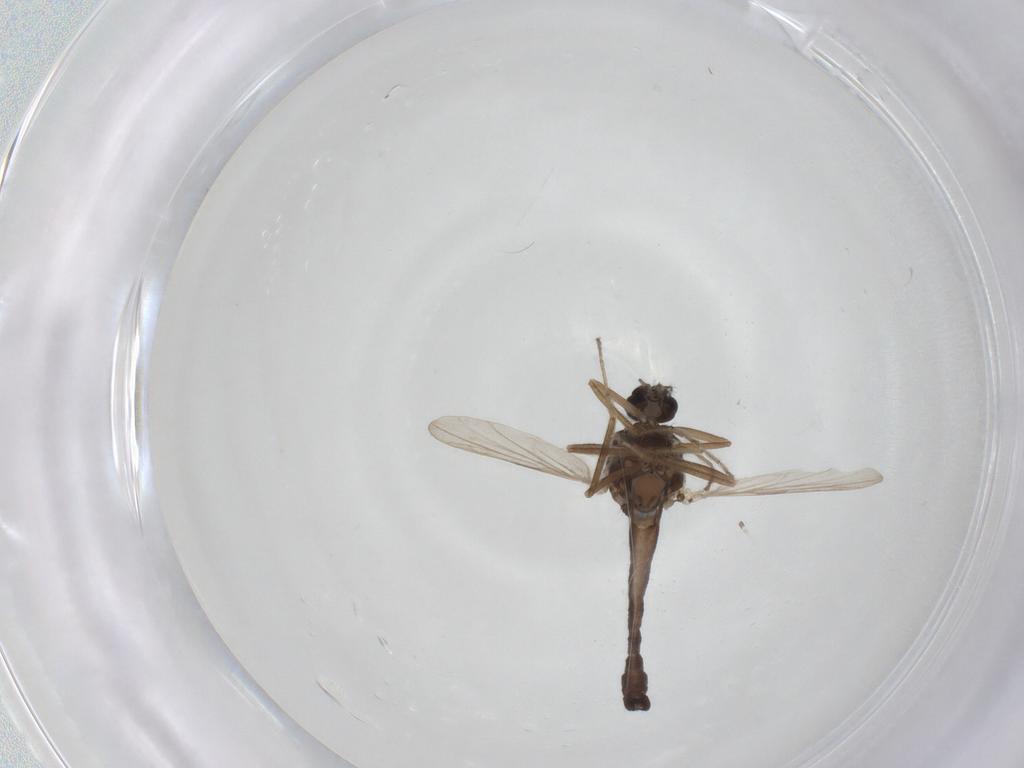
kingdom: Animalia
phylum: Arthropoda
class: Insecta
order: Diptera
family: Ceratopogonidae
